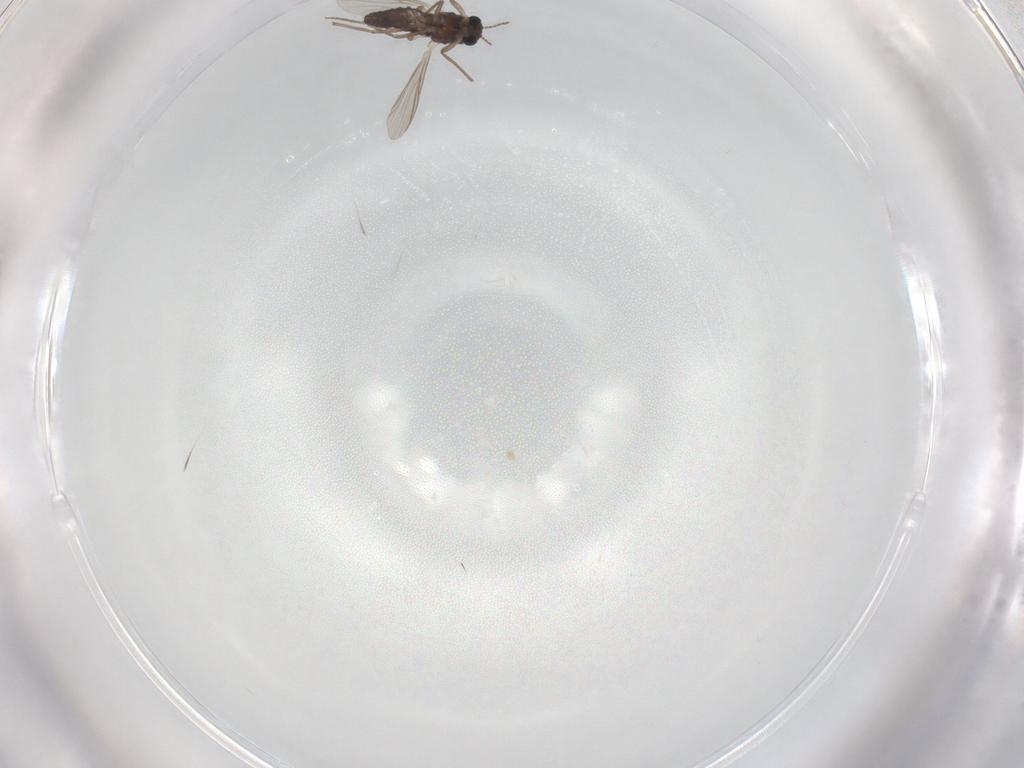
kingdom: Animalia
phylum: Arthropoda
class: Insecta
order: Diptera
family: Chironomidae
